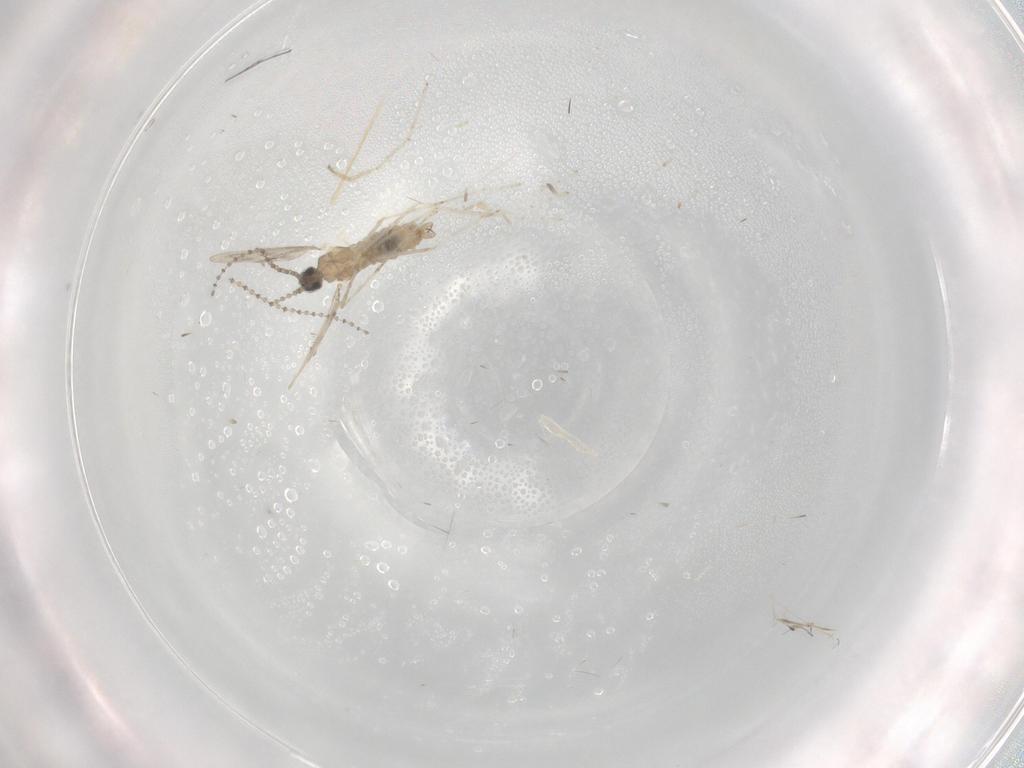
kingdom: Animalia
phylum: Arthropoda
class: Insecta
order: Diptera
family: Cecidomyiidae
